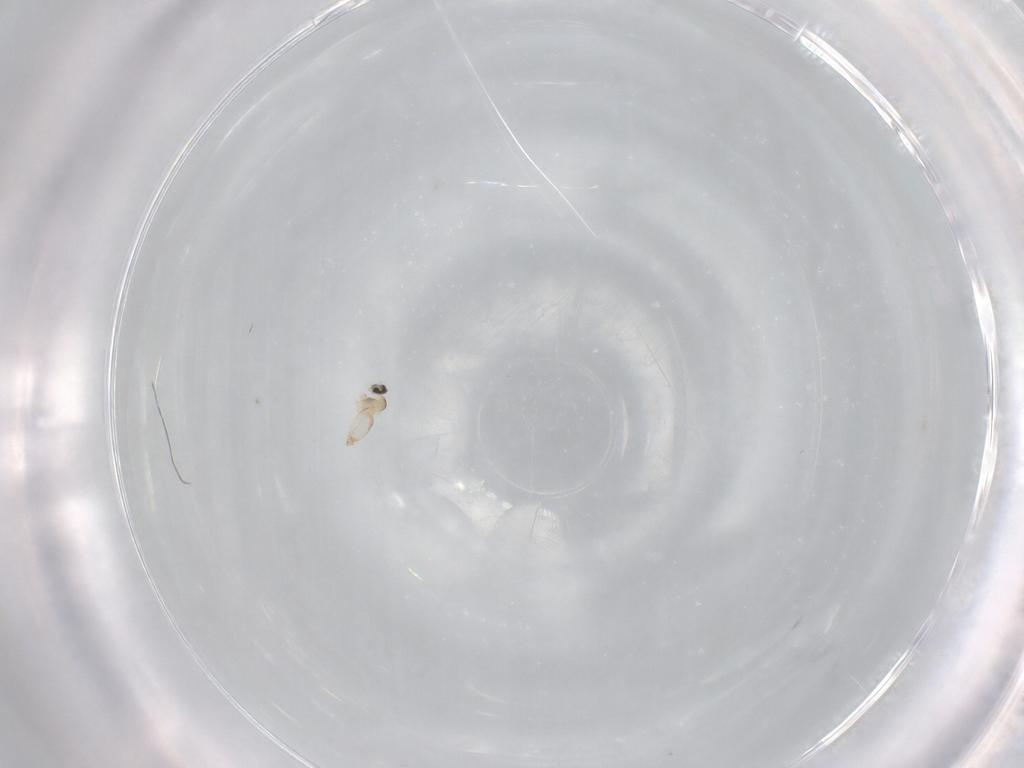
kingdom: Animalia
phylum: Arthropoda
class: Insecta
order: Diptera
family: Cecidomyiidae
